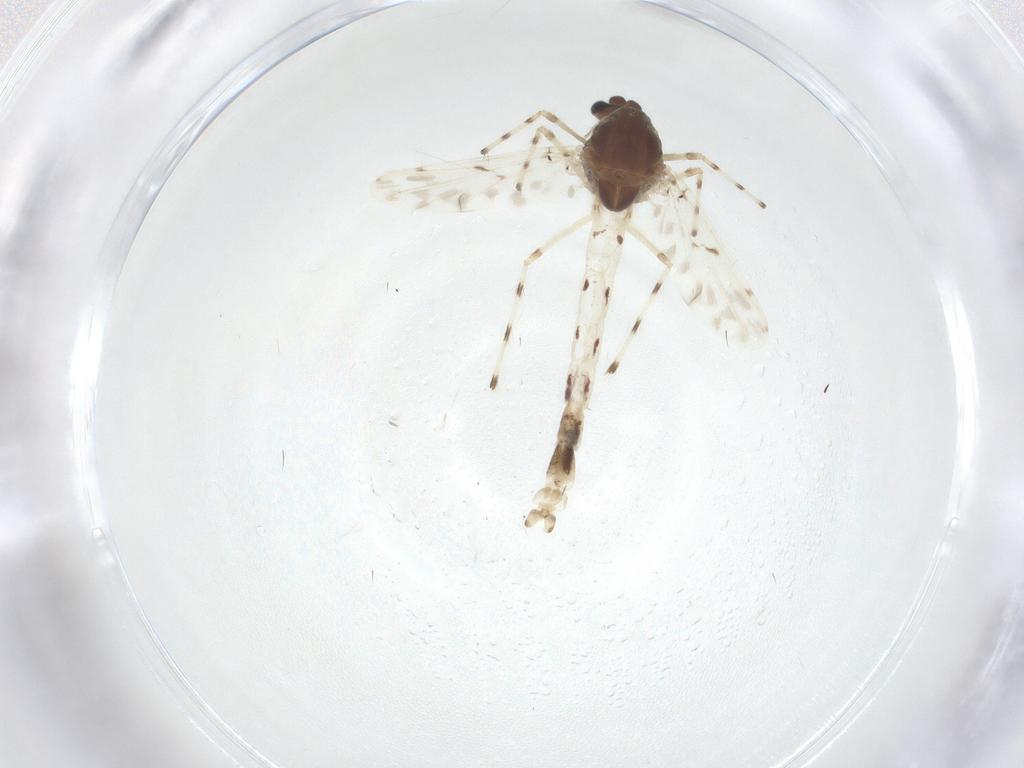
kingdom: Animalia
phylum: Arthropoda
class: Insecta
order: Diptera
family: Chironomidae
